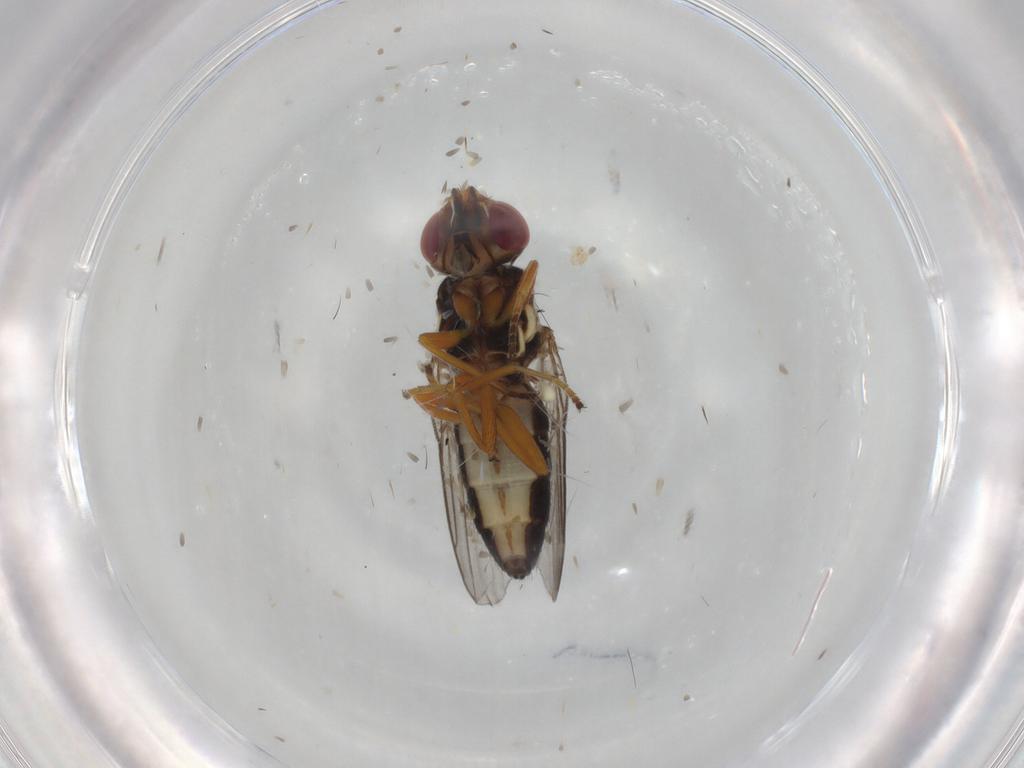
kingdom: Animalia
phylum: Arthropoda
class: Insecta
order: Diptera
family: Chloropidae
